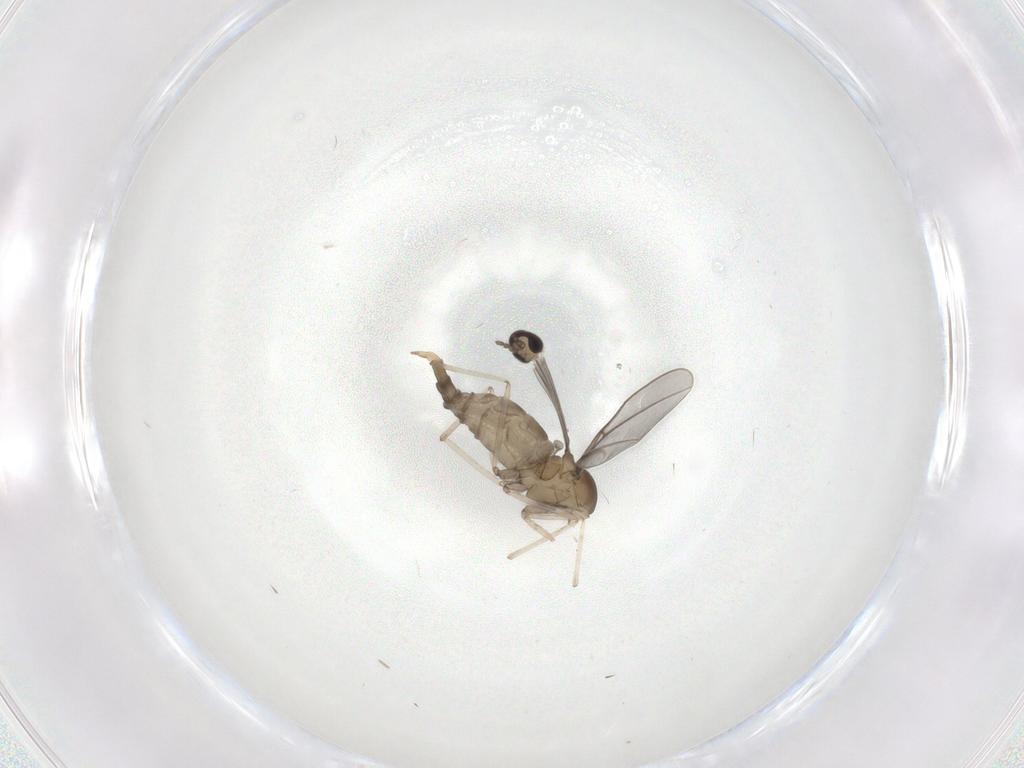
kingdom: Animalia
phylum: Arthropoda
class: Insecta
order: Diptera
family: Cecidomyiidae
